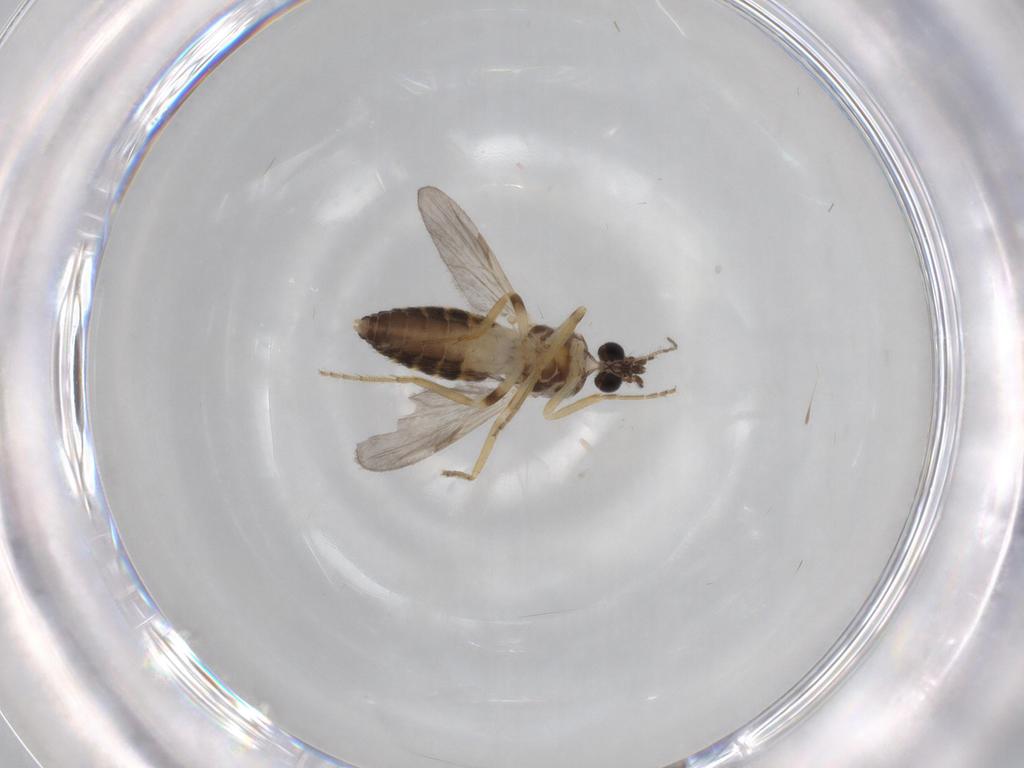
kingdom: Animalia
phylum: Arthropoda
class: Insecta
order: Diptera
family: Ceratopogonidae
